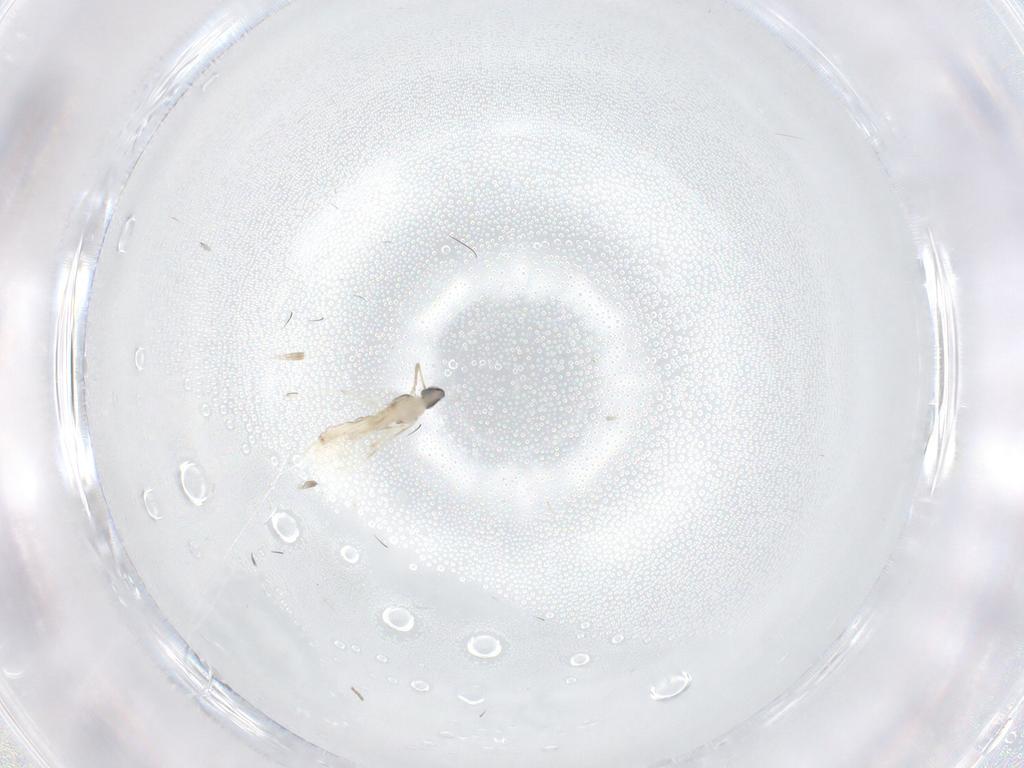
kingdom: Animalia
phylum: Arthropoda
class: Insecta
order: Diptera
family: Cecidomyiidae
